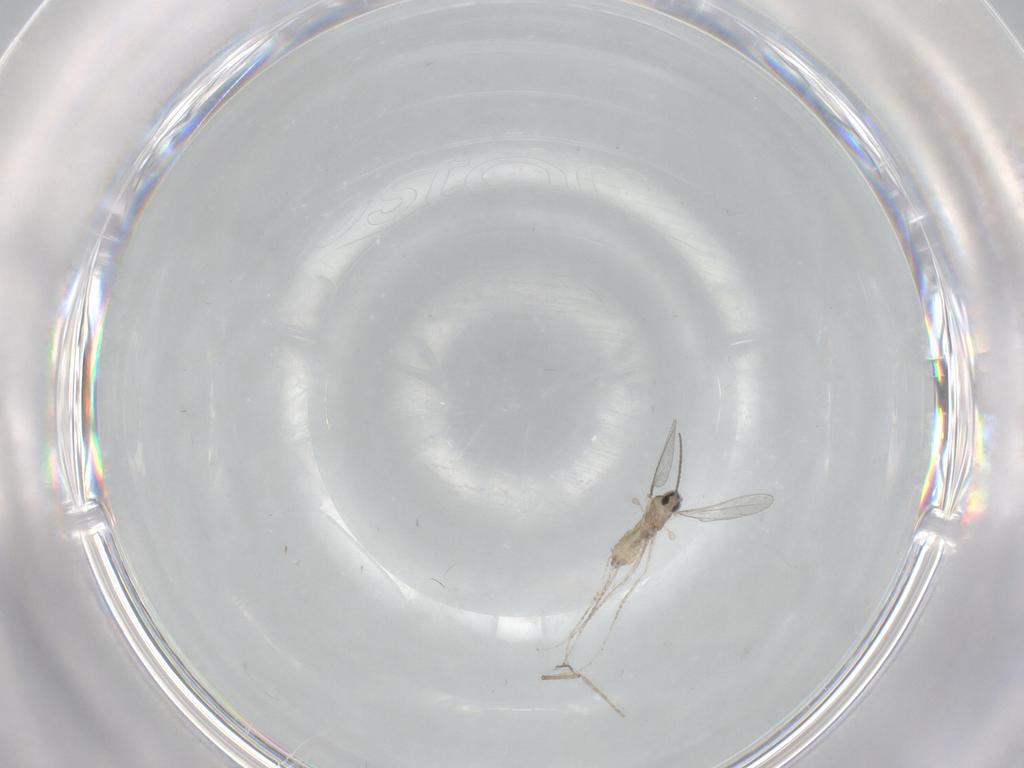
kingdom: Animalia
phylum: Arthropoda
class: Insecta
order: Diptera
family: Cecidomyiidae
